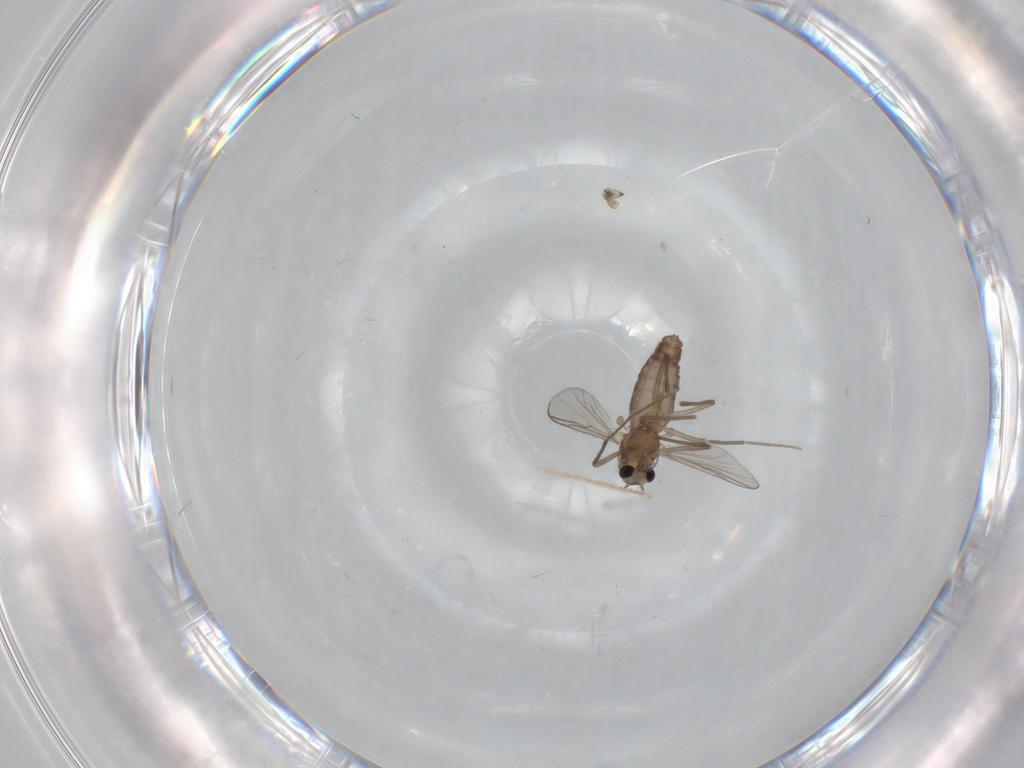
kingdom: Animalia
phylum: Arthropoda
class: Insecta
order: Diptera
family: Chironomidae
